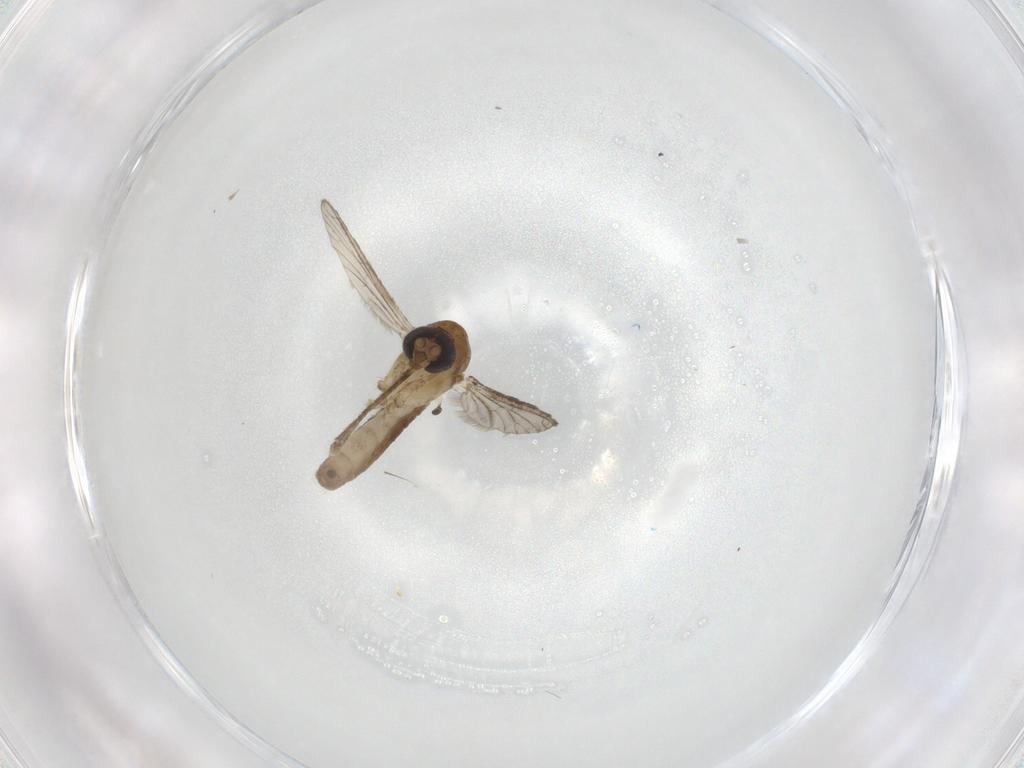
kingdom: Animalia
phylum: Arthropoda
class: Insecta
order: Diptera
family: Ceratopogonidae
